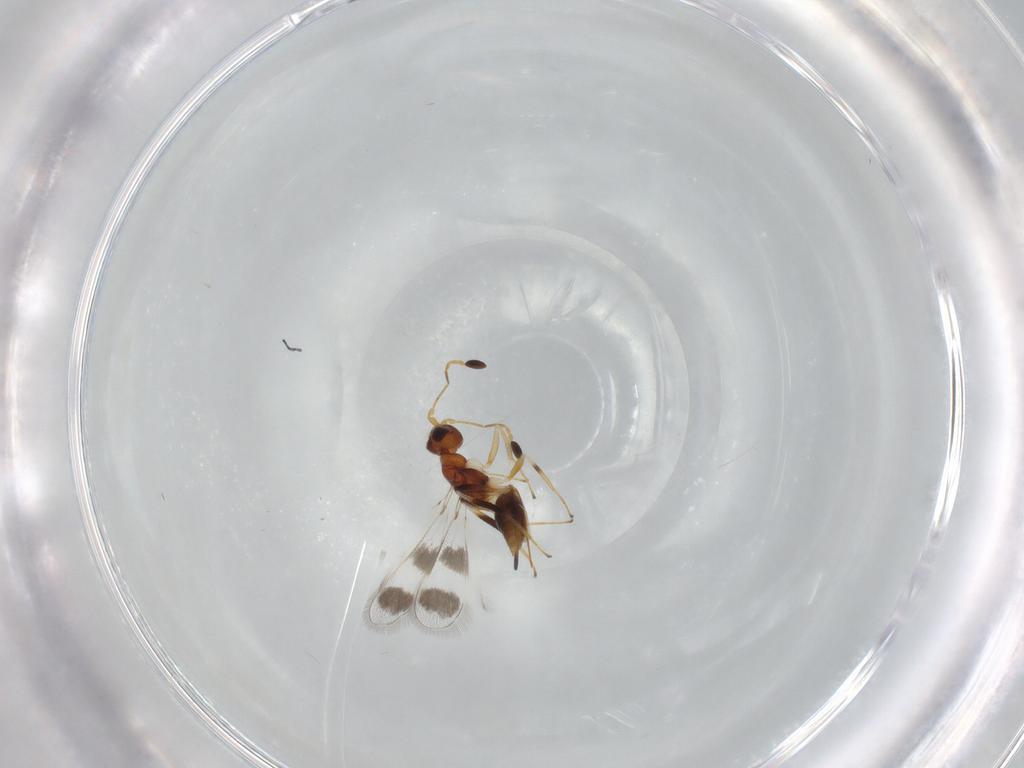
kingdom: Animalia
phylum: Arthropoda
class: Insecta
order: Hymenoptera
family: Mymaridae
